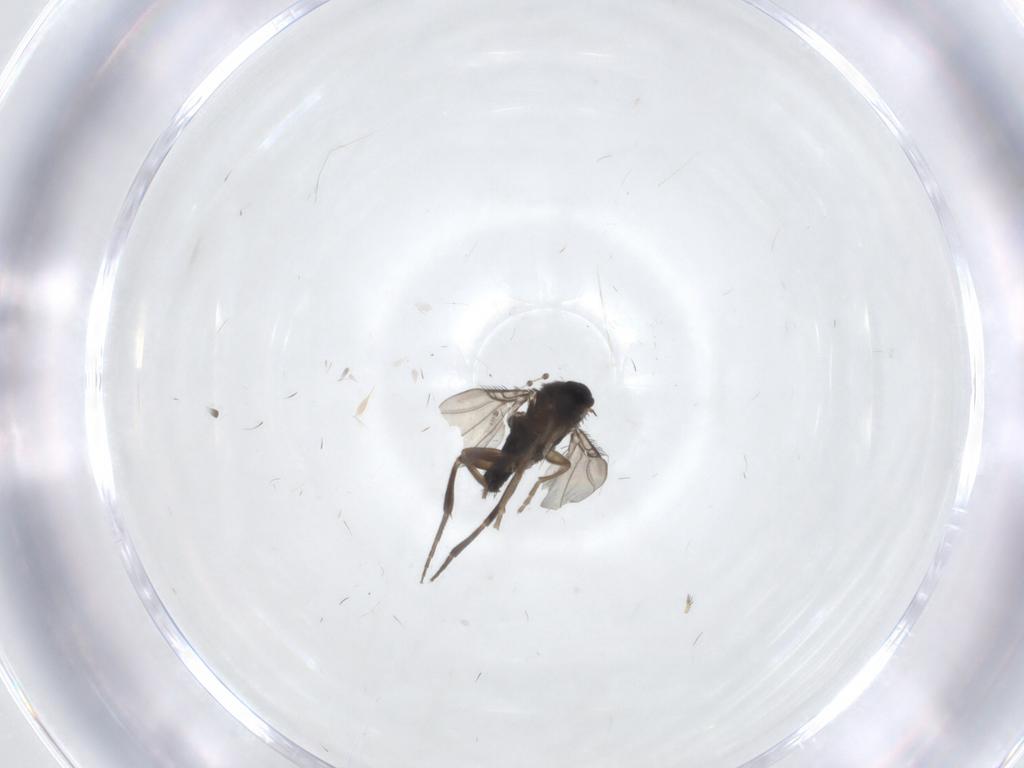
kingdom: Animalia
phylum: Arthropoda
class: Insecta
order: Diptera
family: Phoridae
